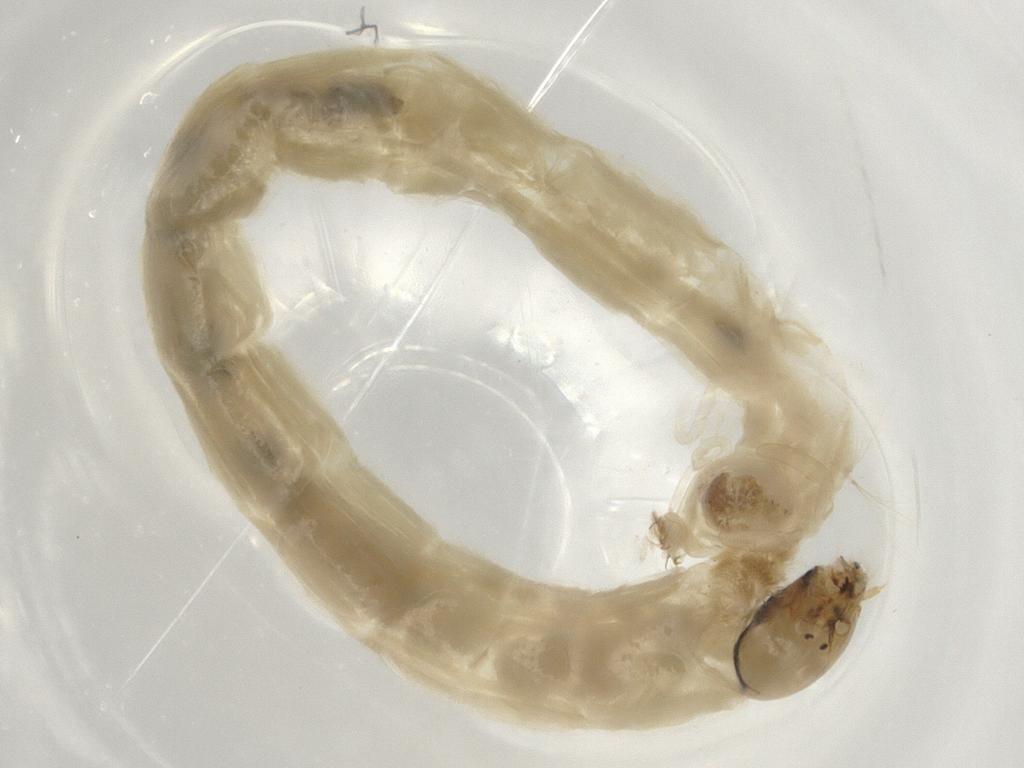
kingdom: Animalia
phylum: Arthropoda
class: Insecta
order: Diptera
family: Chironomidae
